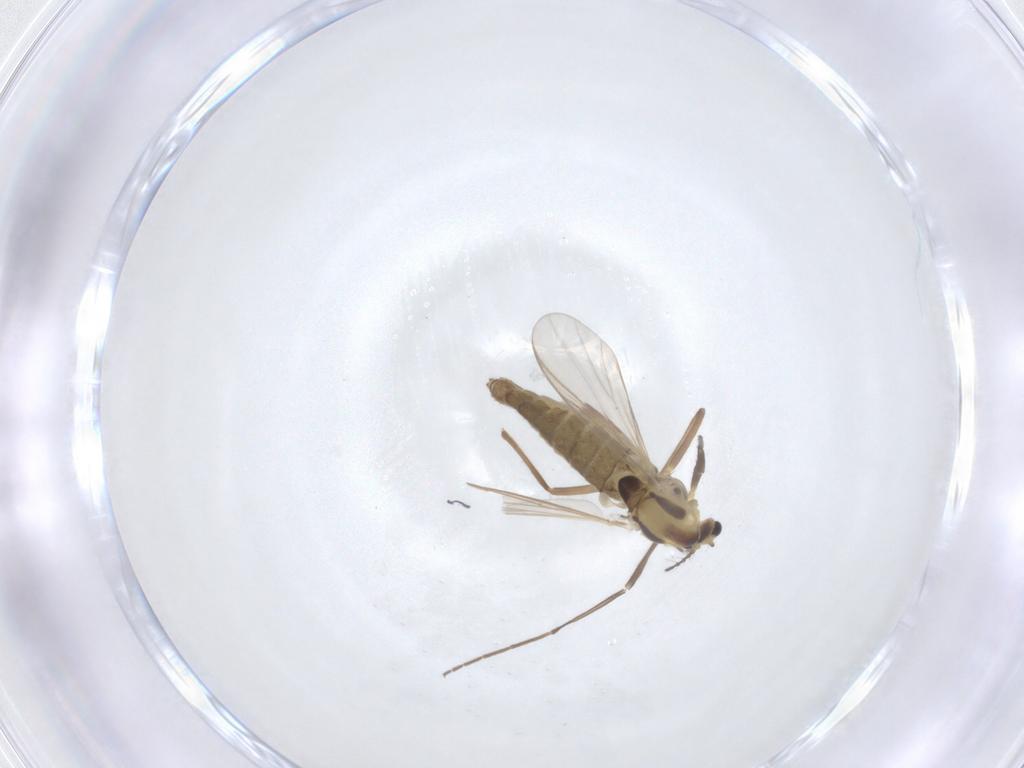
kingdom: Animalia
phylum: Arthropoda
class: Insecta
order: Diptera
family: Chironomidae
